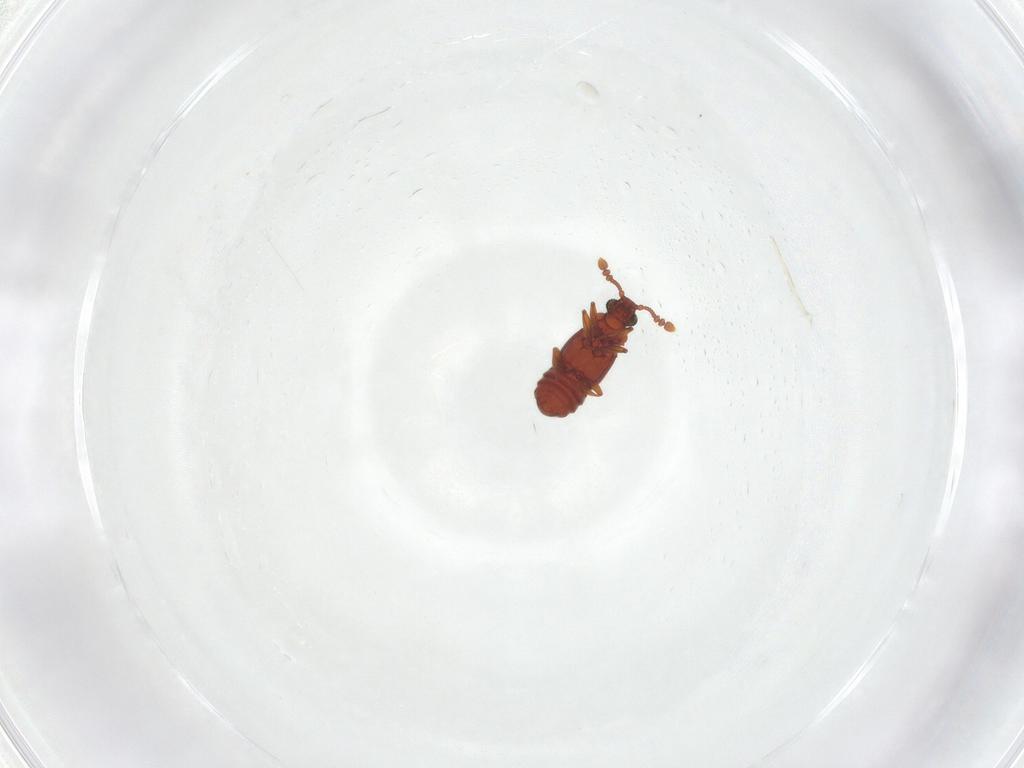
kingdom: Animalia
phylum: Arthropoda
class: Insecta
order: Coleoptera
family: Staphylinidae
